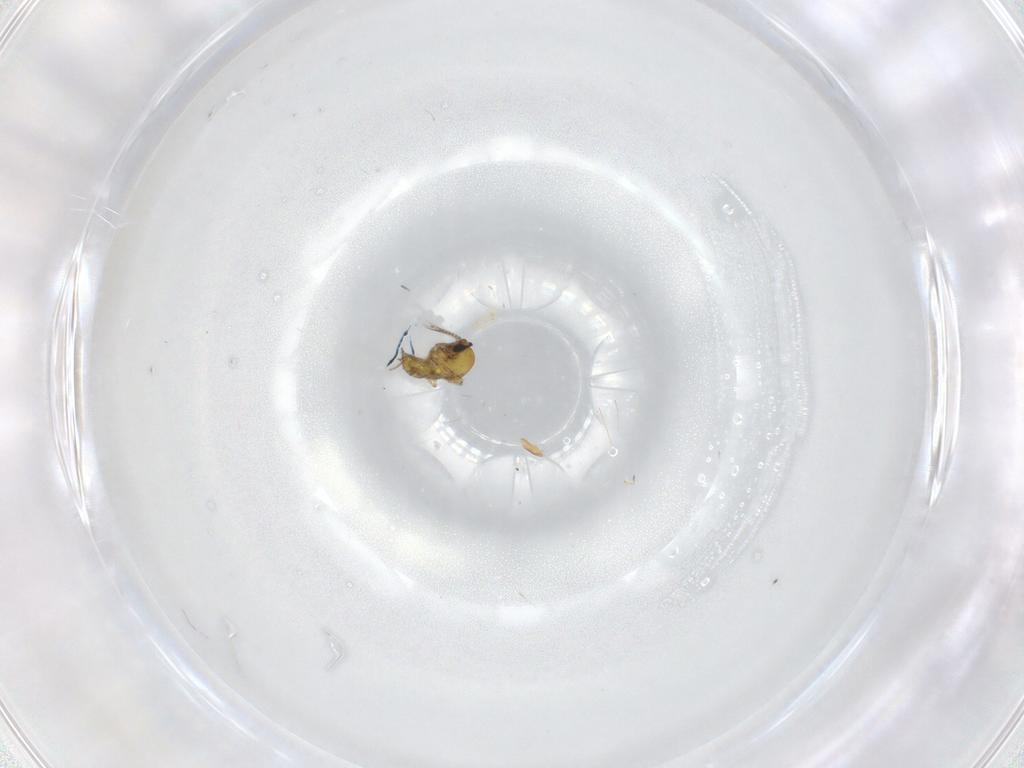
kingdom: Animalia
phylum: Arthropoda
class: Insecta
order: Diptera
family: Ceratopogonidae
